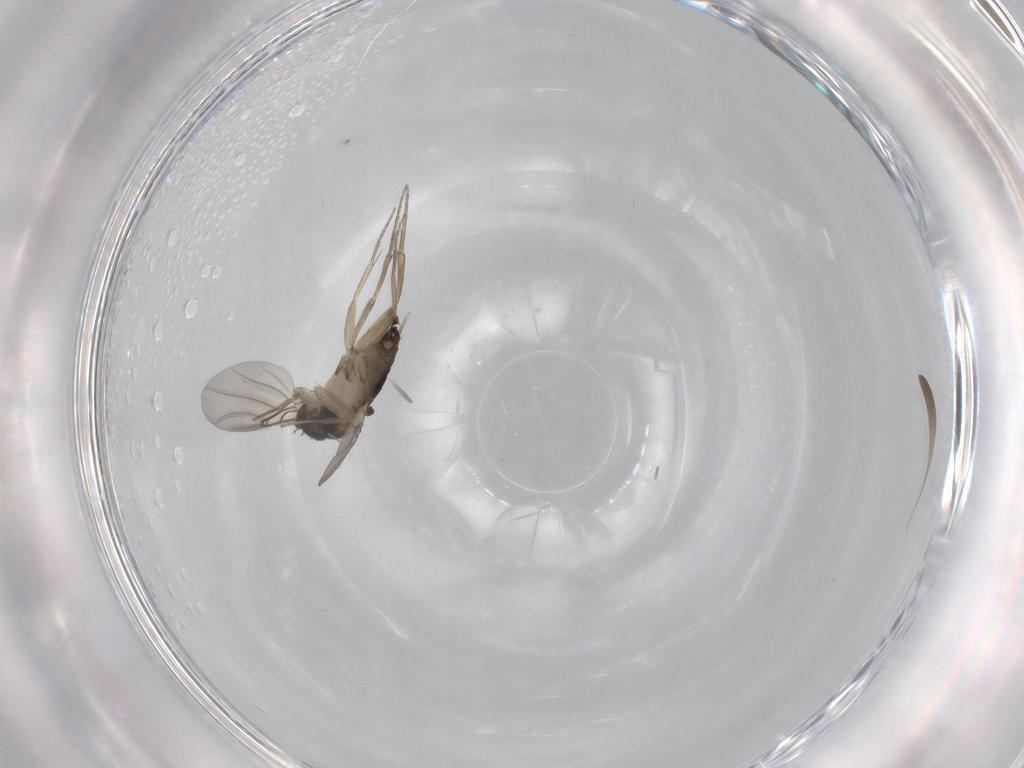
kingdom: Animalia
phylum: Arthropoda
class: Insecta
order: Diptera
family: Phoridae
